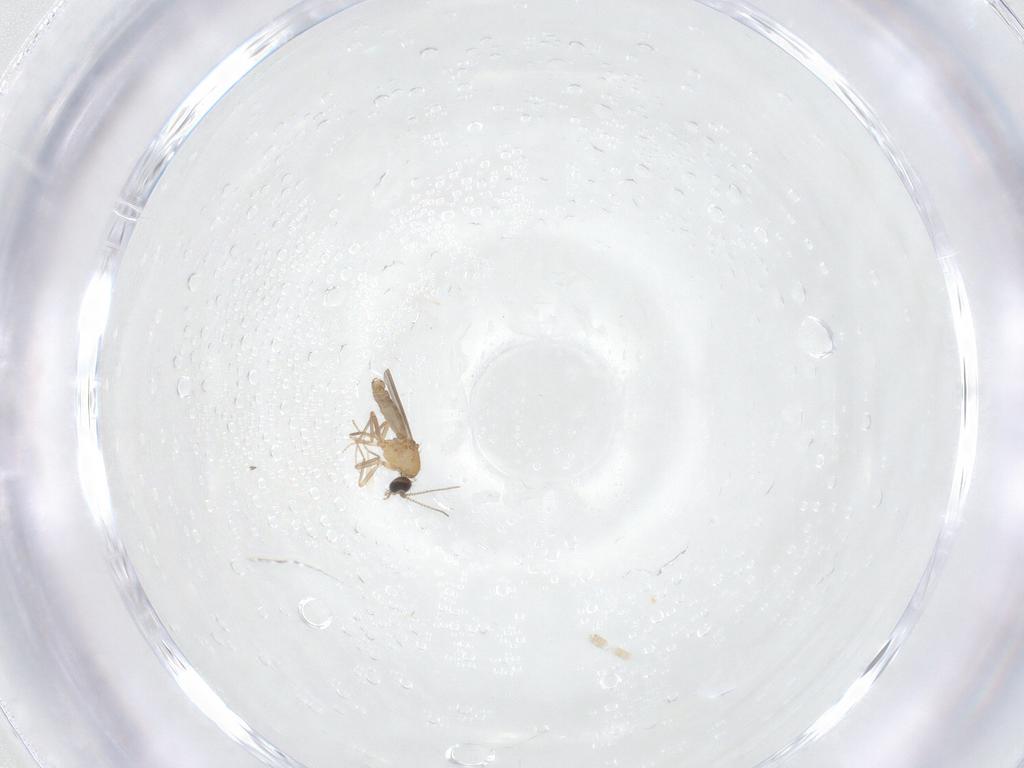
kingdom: Animalia
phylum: Arthropoda
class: Insecta
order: Diptera
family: Ceratopogonidae
